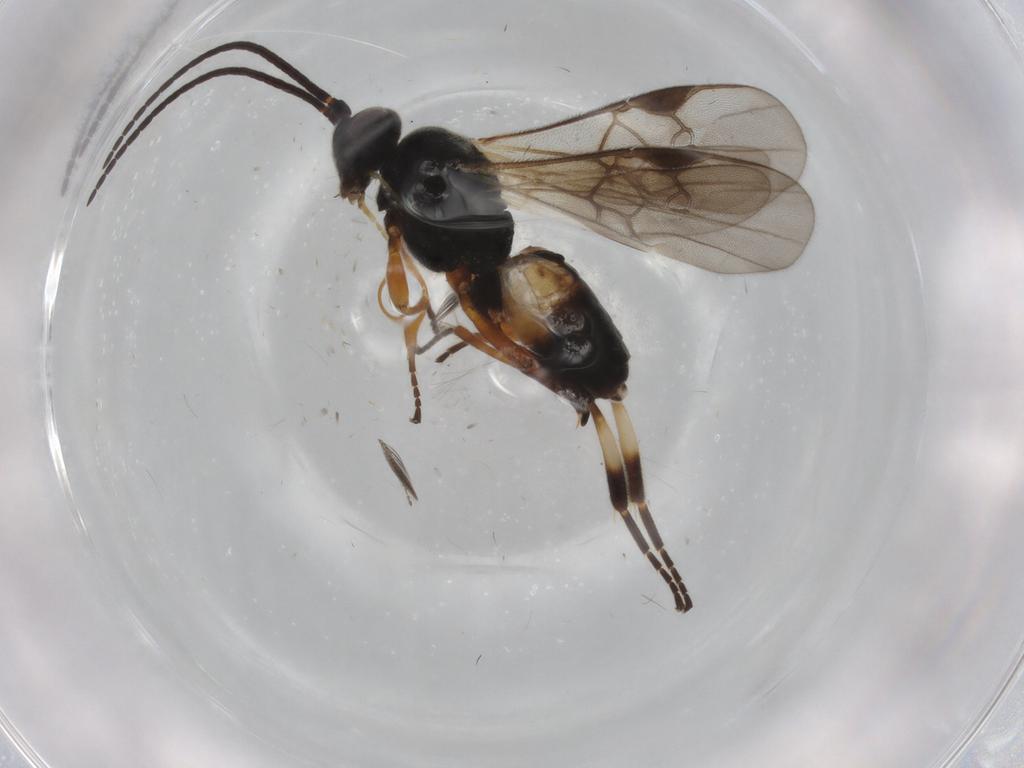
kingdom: Animalia
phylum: Arthropoda
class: Insecta
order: Hymenoptera
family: Braconidae
